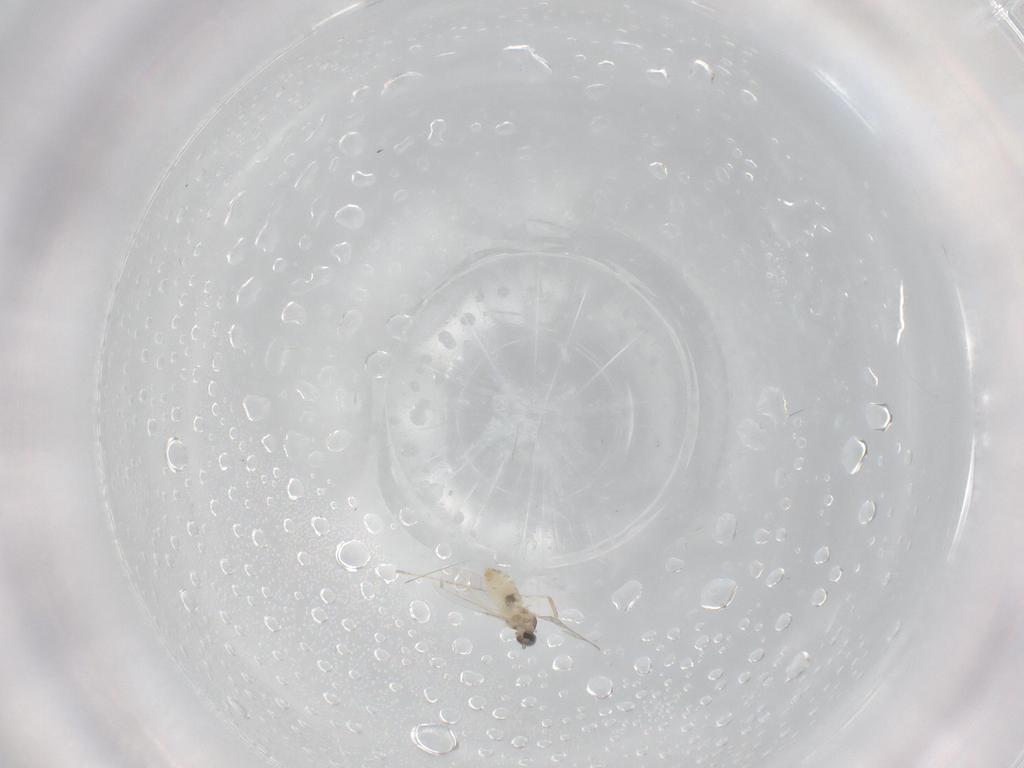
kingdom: Animalia
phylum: Arthropoda
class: Insecta
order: Diptera
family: Cecidomyiidae
